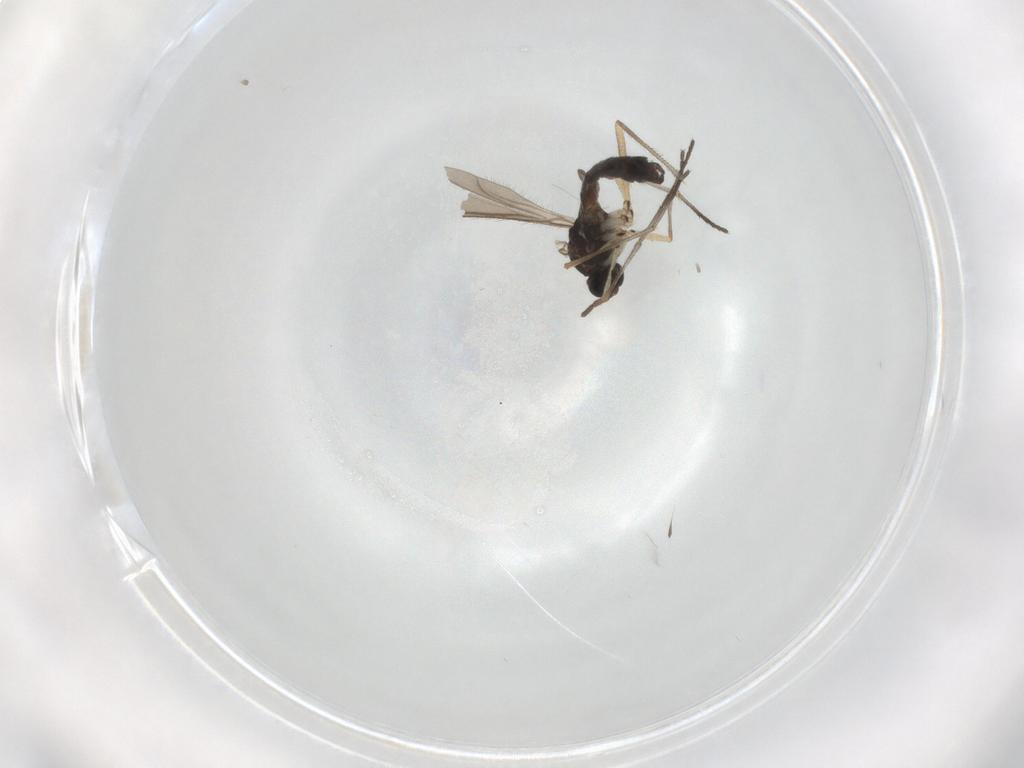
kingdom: Animalia
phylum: Arthropoda
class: Insecta
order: Diptera
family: Sciaridae
